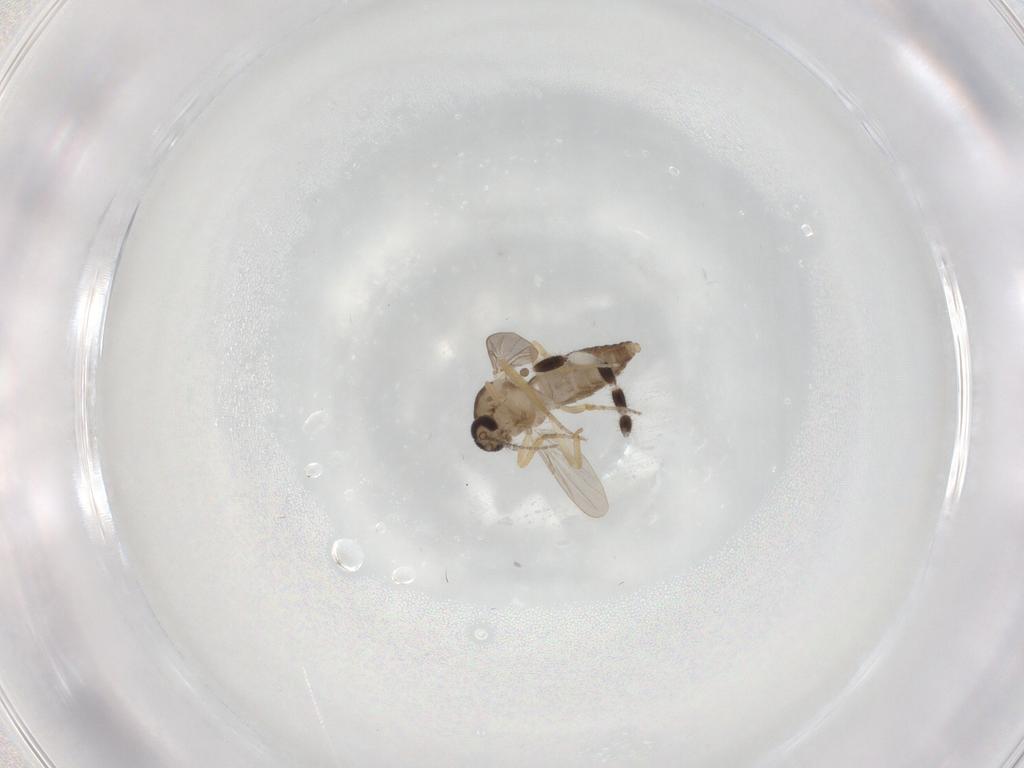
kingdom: Animalia
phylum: Arthropoda
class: Insecta
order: Diptera
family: Ceratopogonidae
